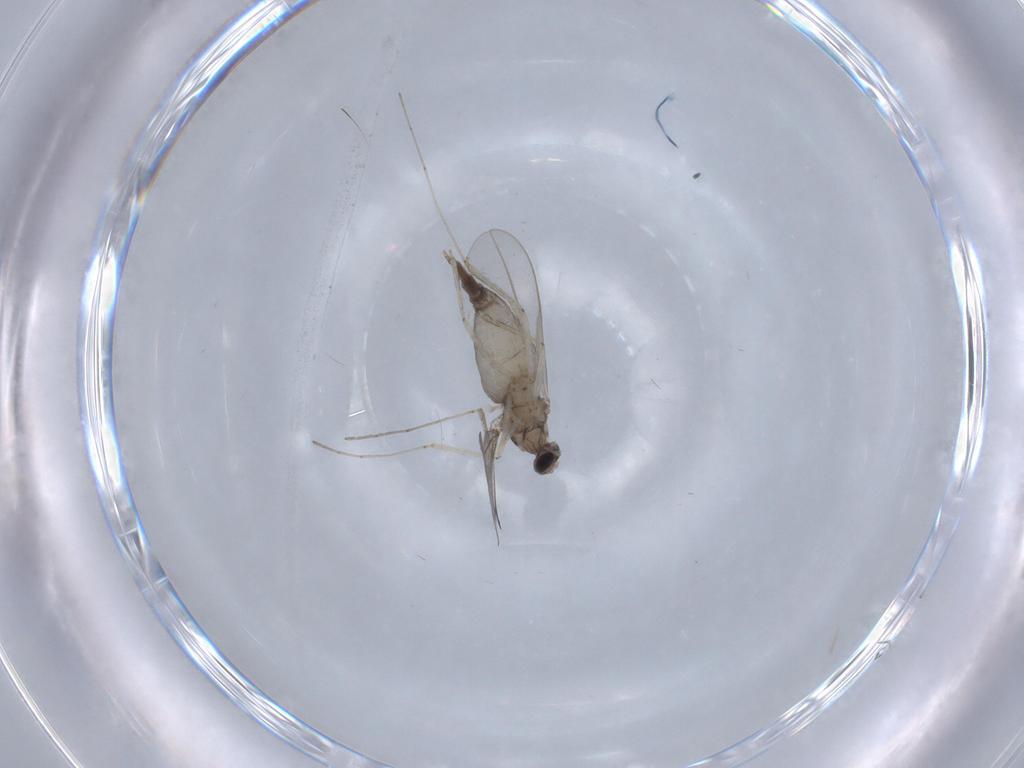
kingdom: Animalia
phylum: Arthropoda
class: Insecta
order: Diptera
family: Cecidomyiidae
